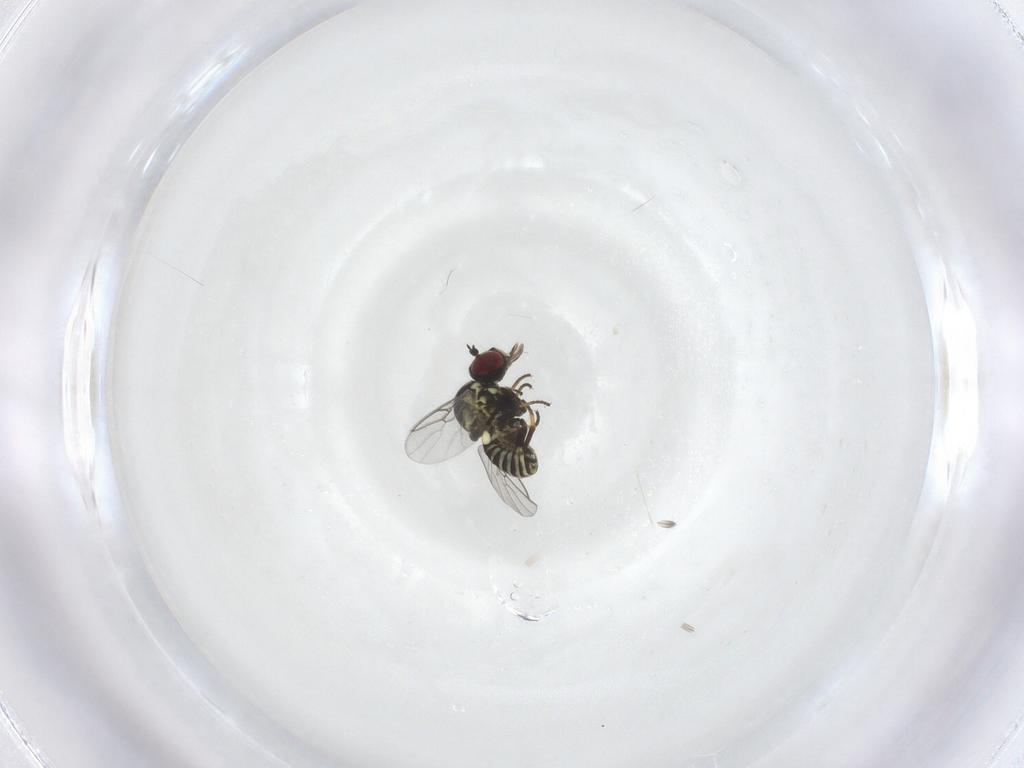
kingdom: Animalia
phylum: Arthropoda
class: Insecta
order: Diptera
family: Mythicomyiidae
